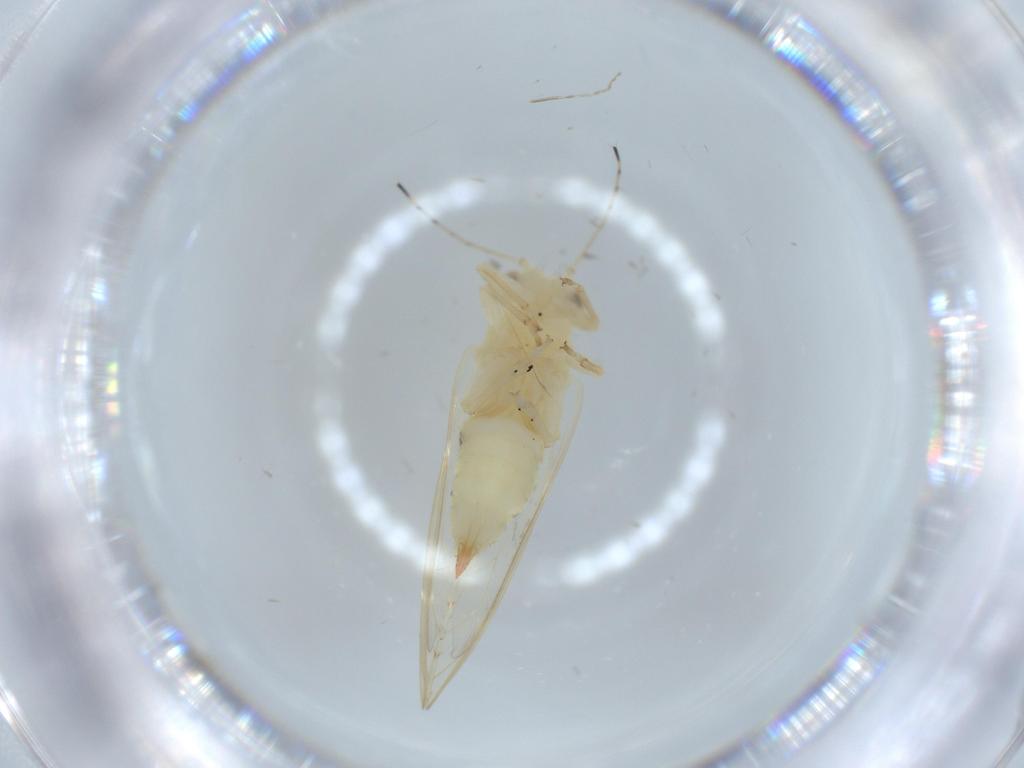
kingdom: Animalia
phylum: Arthropoda
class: Insecta
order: Hemiptera
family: Triozidae
